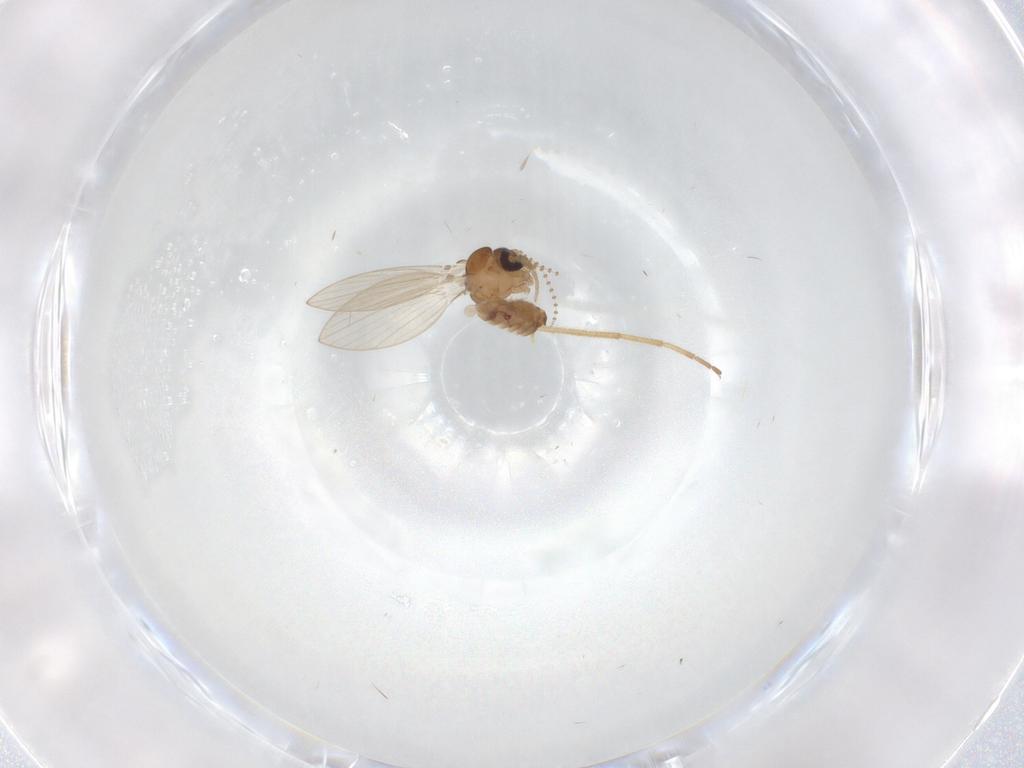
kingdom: Animalia
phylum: Arthropoda
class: Insecta
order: Diptera
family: Psychodidae
